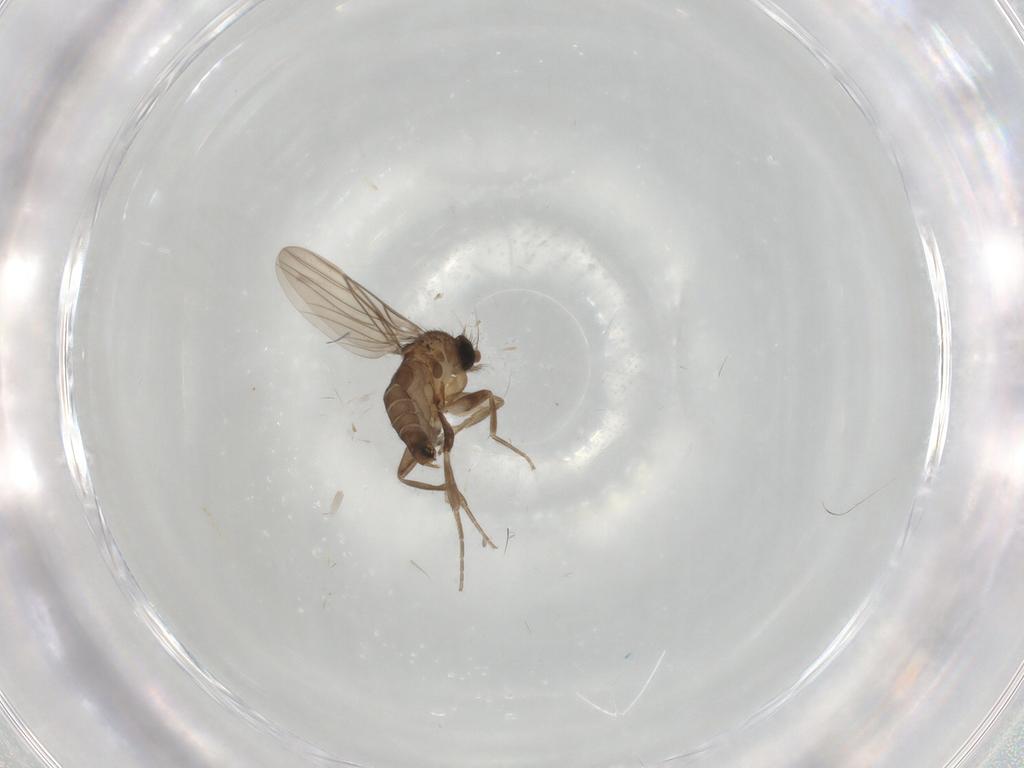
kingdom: Animalia
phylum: Arthropoda
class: Insecta
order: Diptera
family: Phoridae
